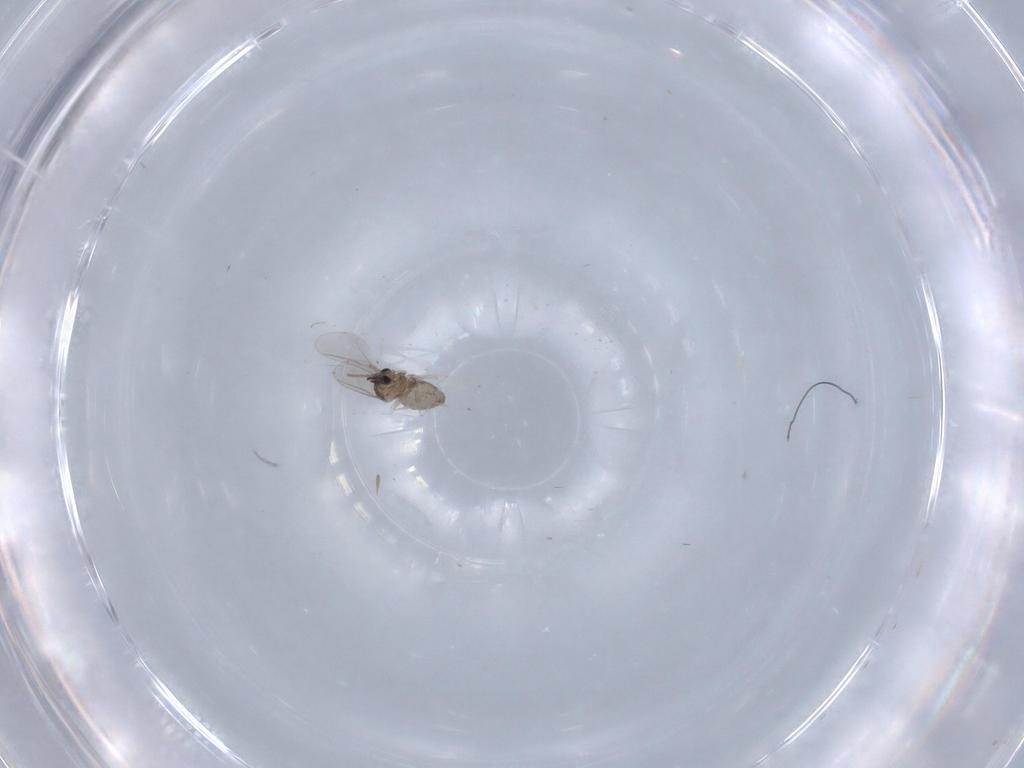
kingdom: Animalia
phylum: Arthropoda
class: Insecta
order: Diptera
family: Cecidomyiidae
